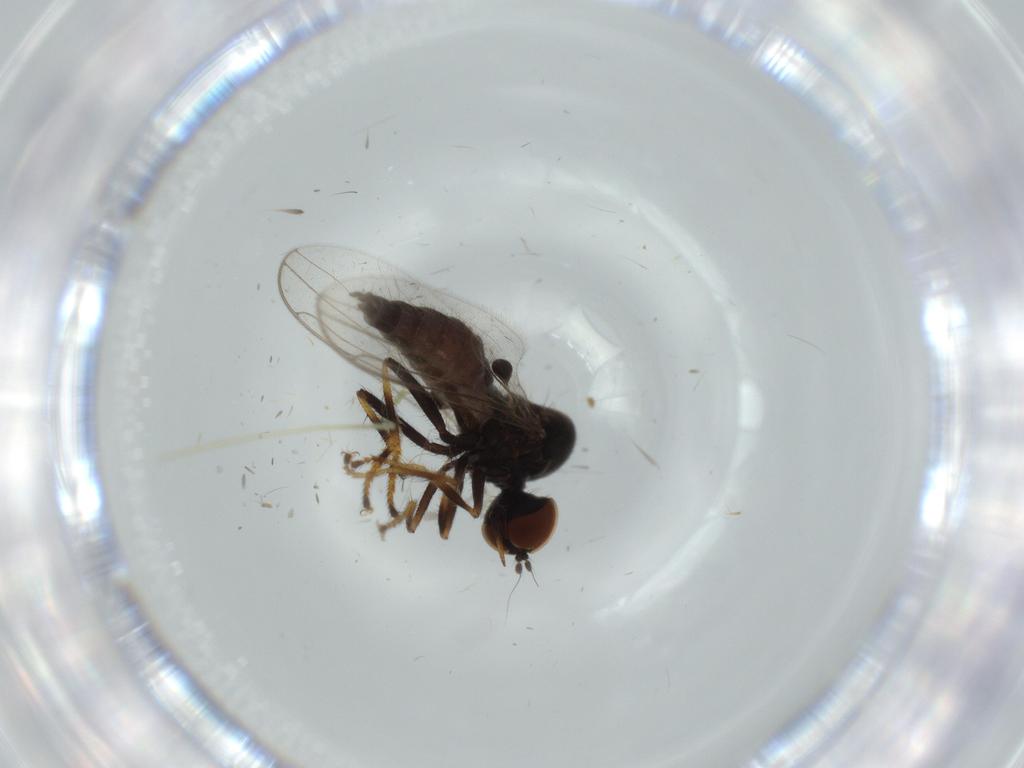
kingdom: Animalia
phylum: Arthropoda
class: Insecta
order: Diptera
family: Hybotidae
